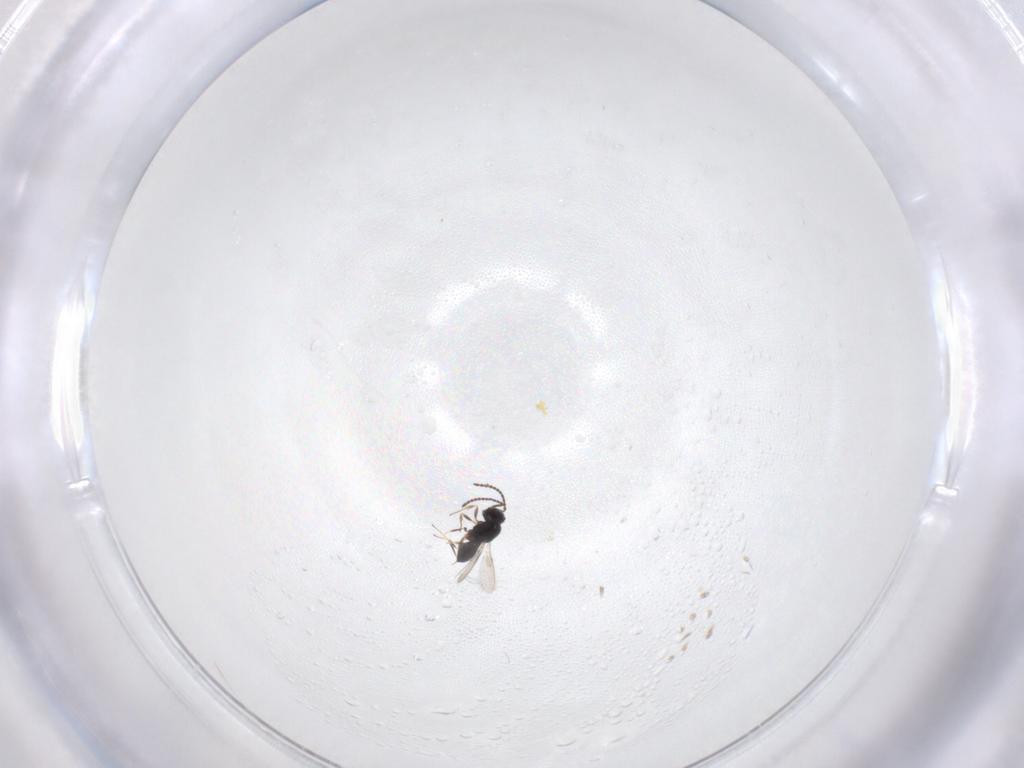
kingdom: Animalia
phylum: Arthropoda
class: Insecta
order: Hymenoptera
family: Scelionidae
